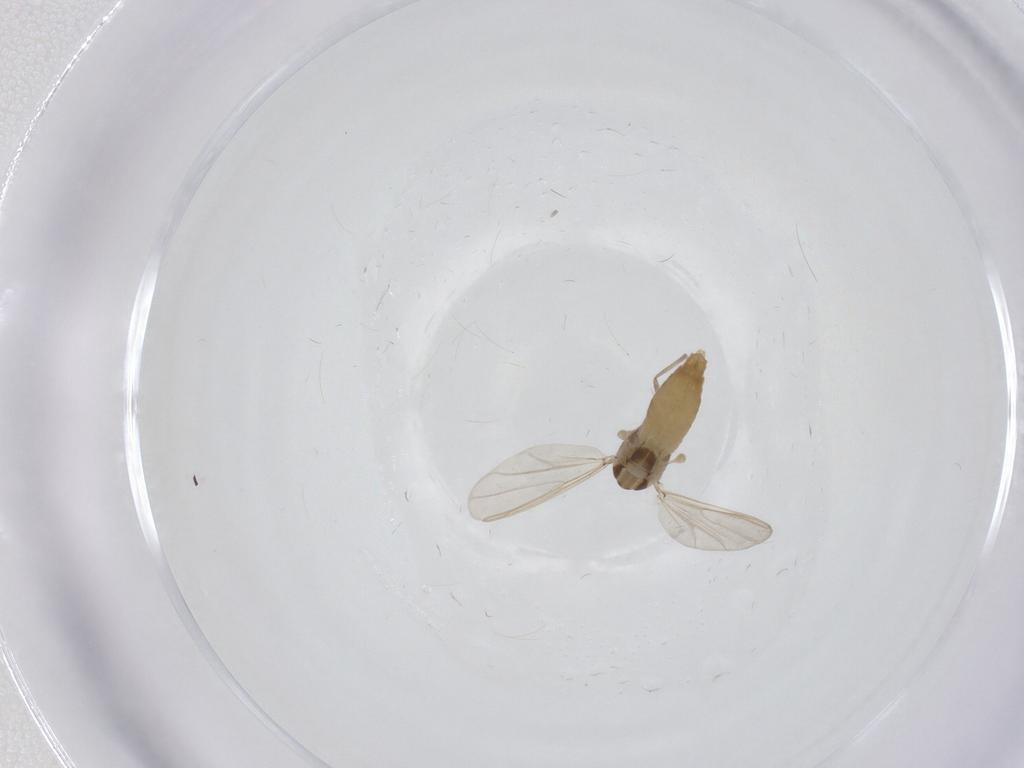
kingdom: Animalia
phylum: Arthropoda
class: Insecta
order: Diptera
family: Chironomidae
